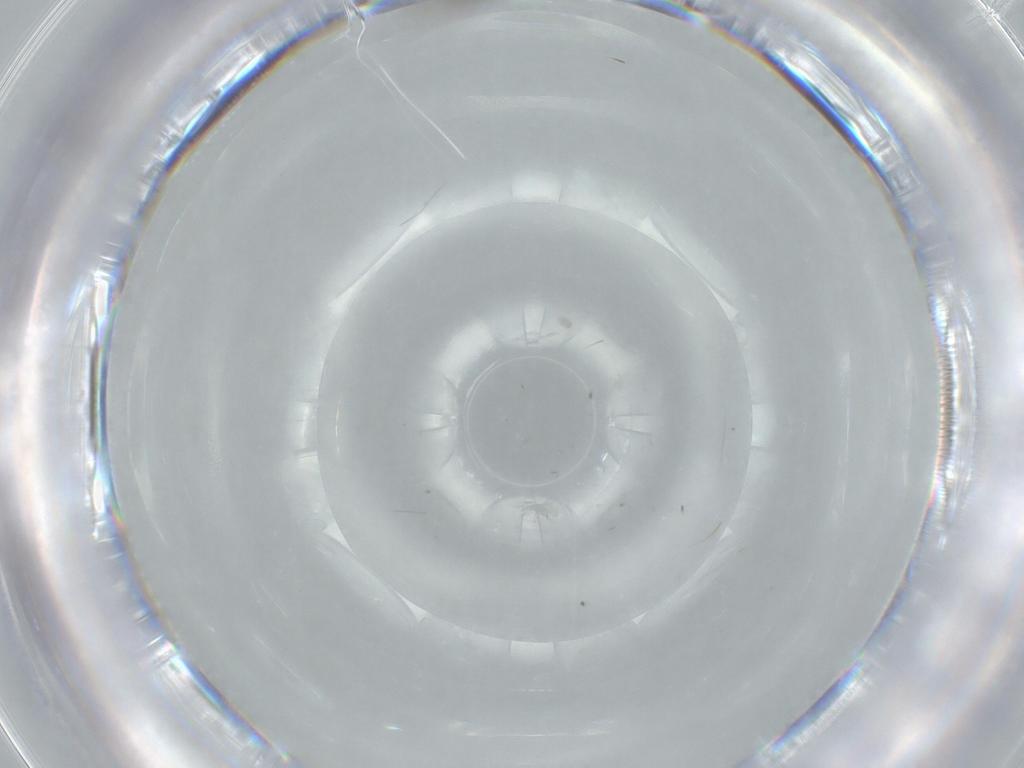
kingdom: Animalia
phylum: Arthropoda
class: Insecta
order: Diptera
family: Phoridae
